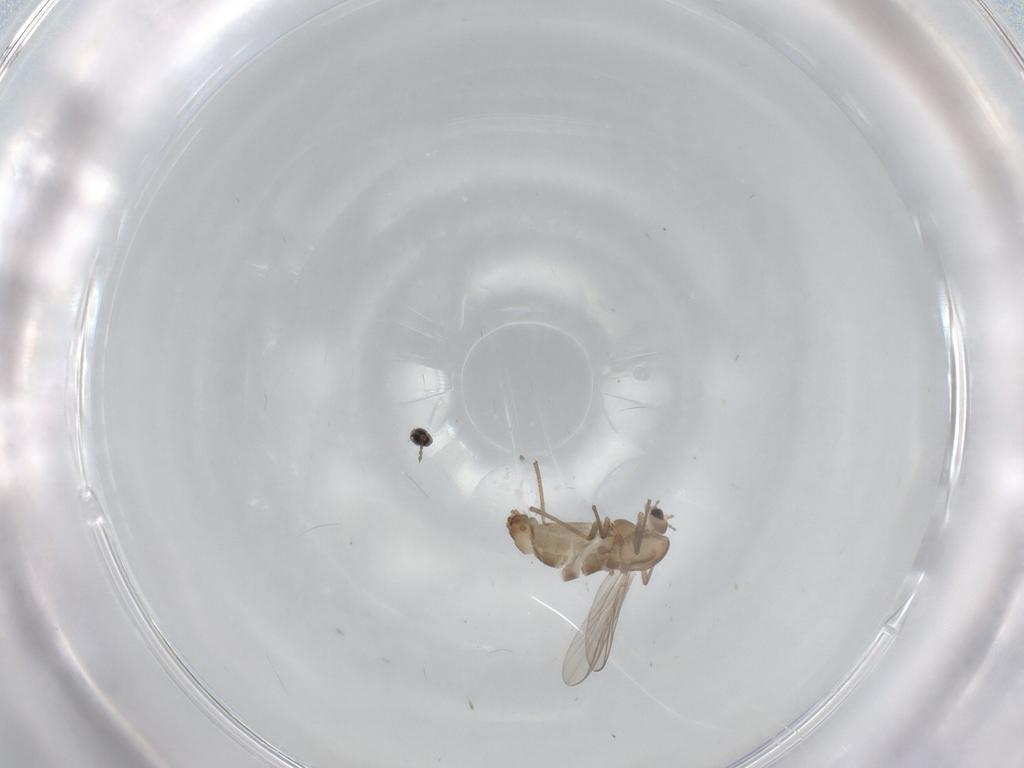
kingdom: Animalia
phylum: Arthropoda
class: Insecta
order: Diptera
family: Chironomidae
